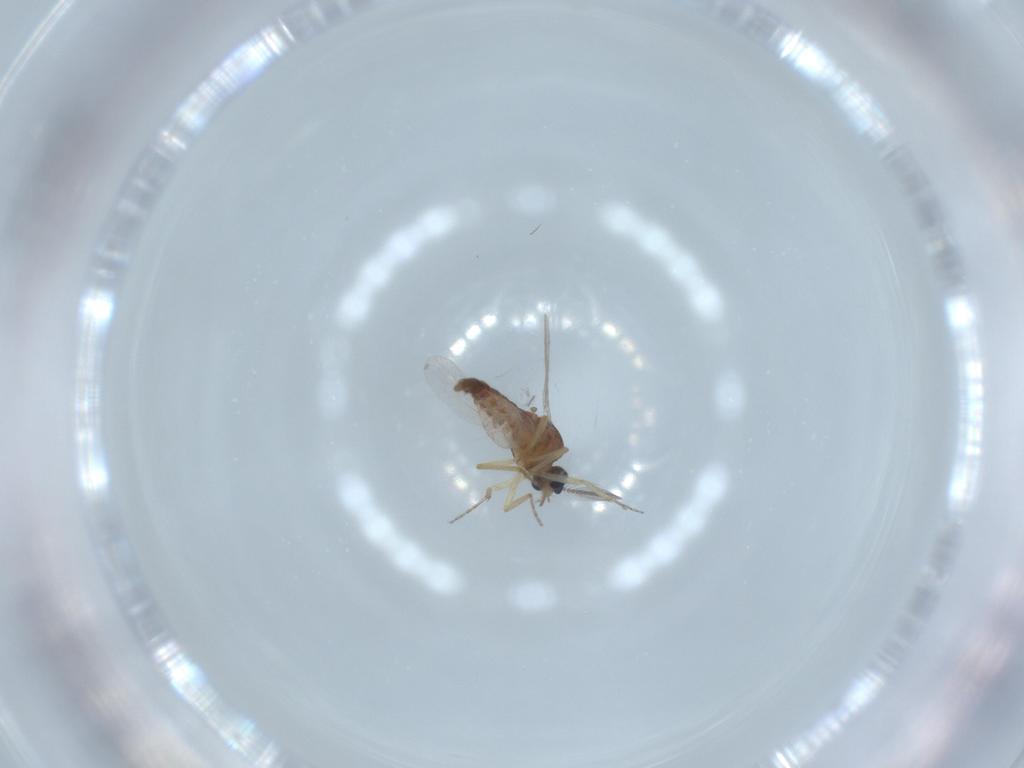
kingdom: Animalia
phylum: Arthropoda
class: Insecta
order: Diptera
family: Ceratopogonidae
